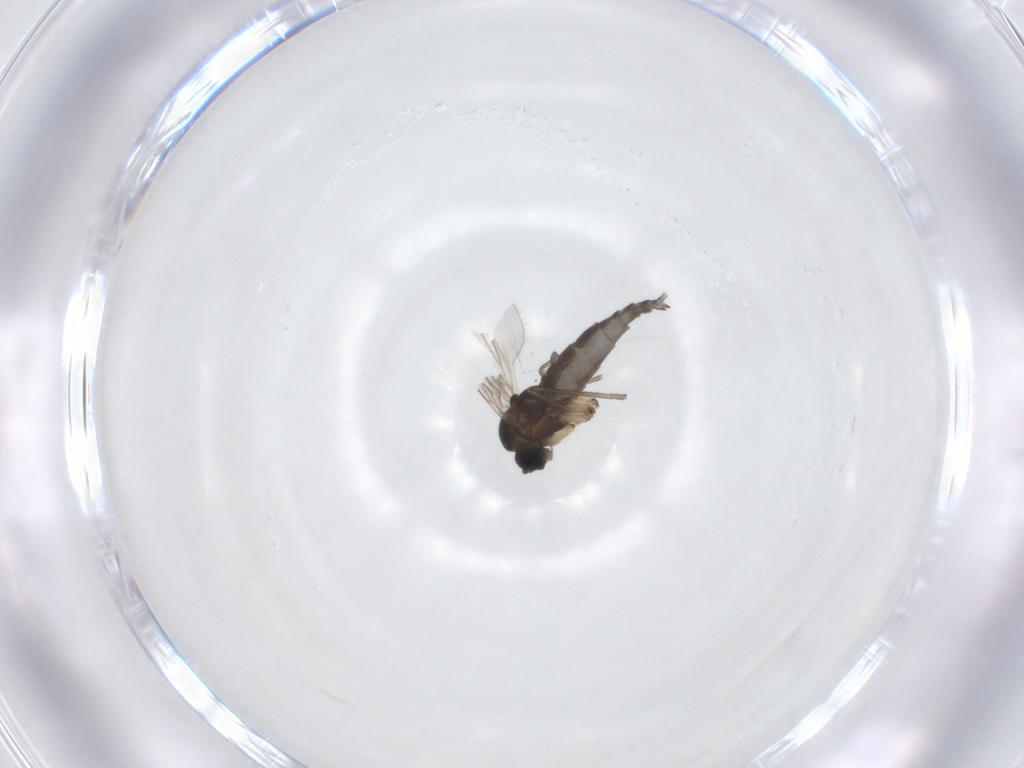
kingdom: Animalia
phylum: Arthropoda
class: Insecta
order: Diptera
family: Sciaridae
